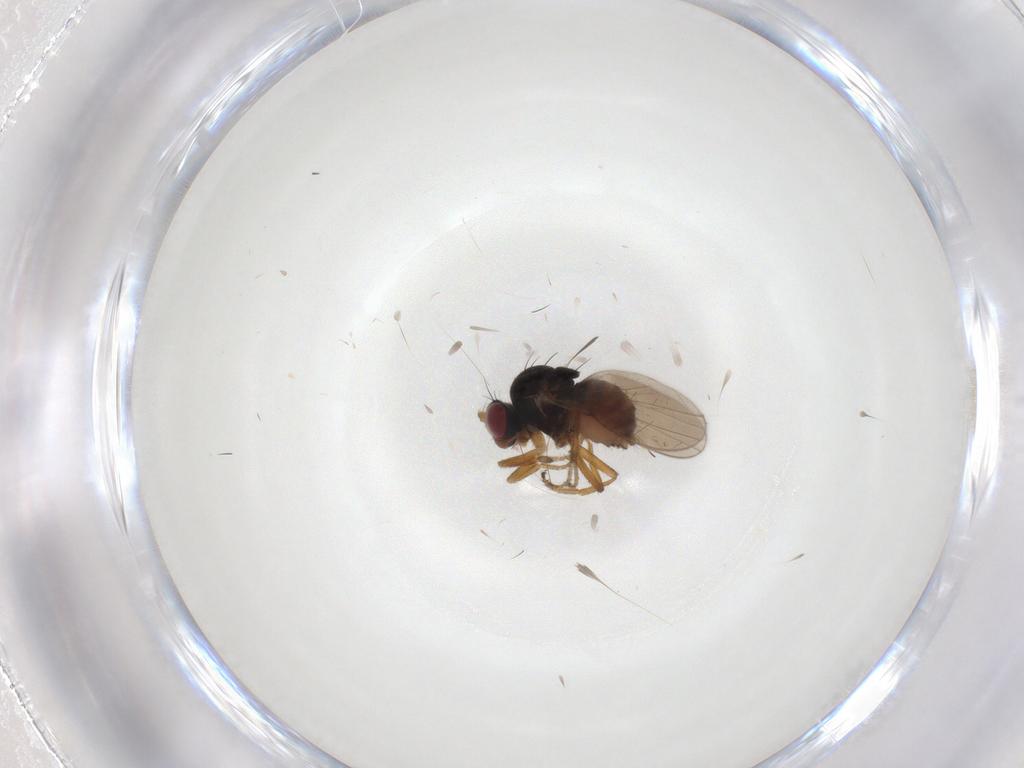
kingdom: Animalia
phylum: Arthropoda
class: Insecta
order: Diptera
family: Ephydridae
